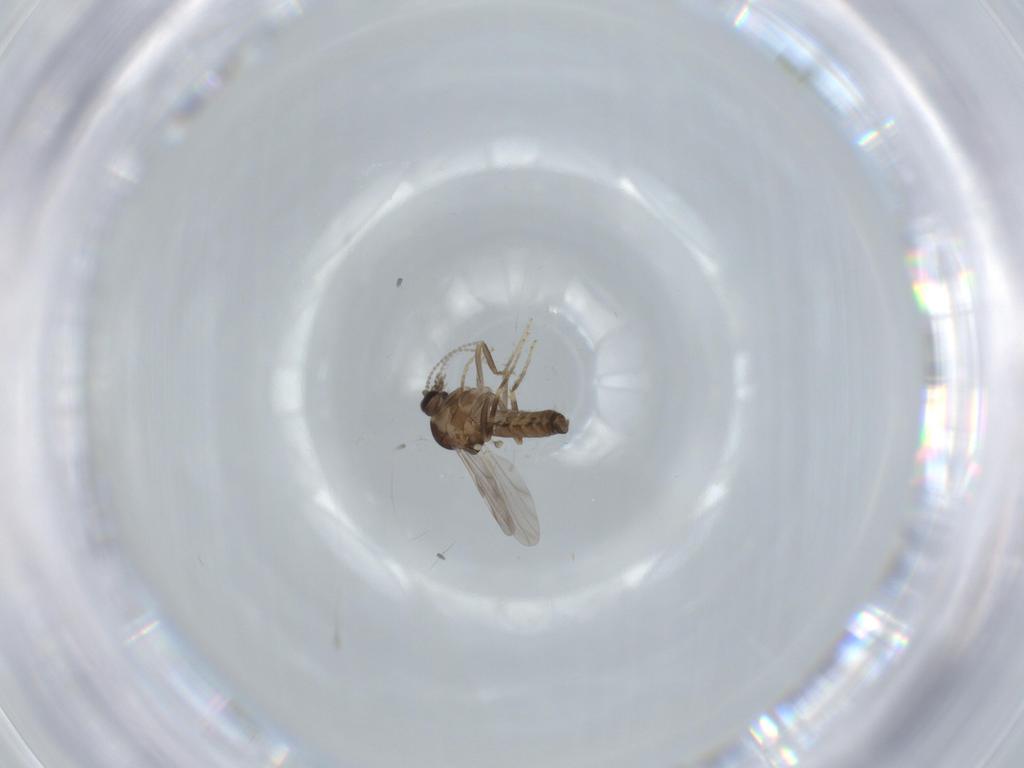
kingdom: Animalia
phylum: Arthropoda
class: Insecta
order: Diptera
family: Ceratopogonidae
